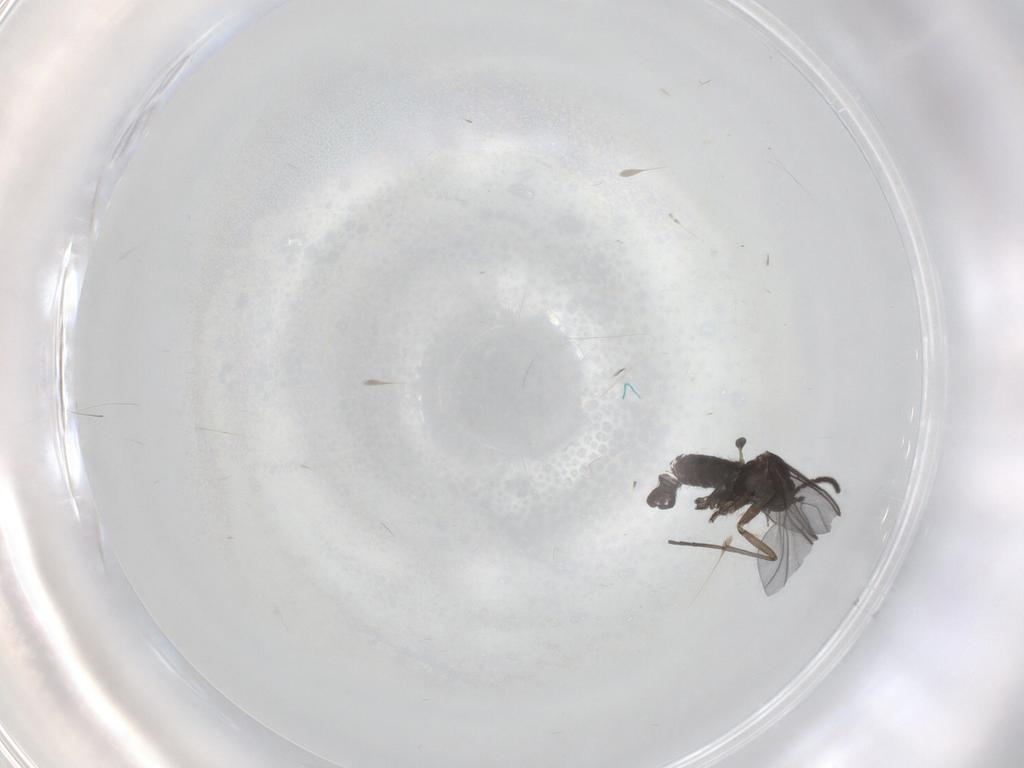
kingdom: Animalia
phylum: Arthropoda
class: Insecta
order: Diptera
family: Cecidomyiidae
